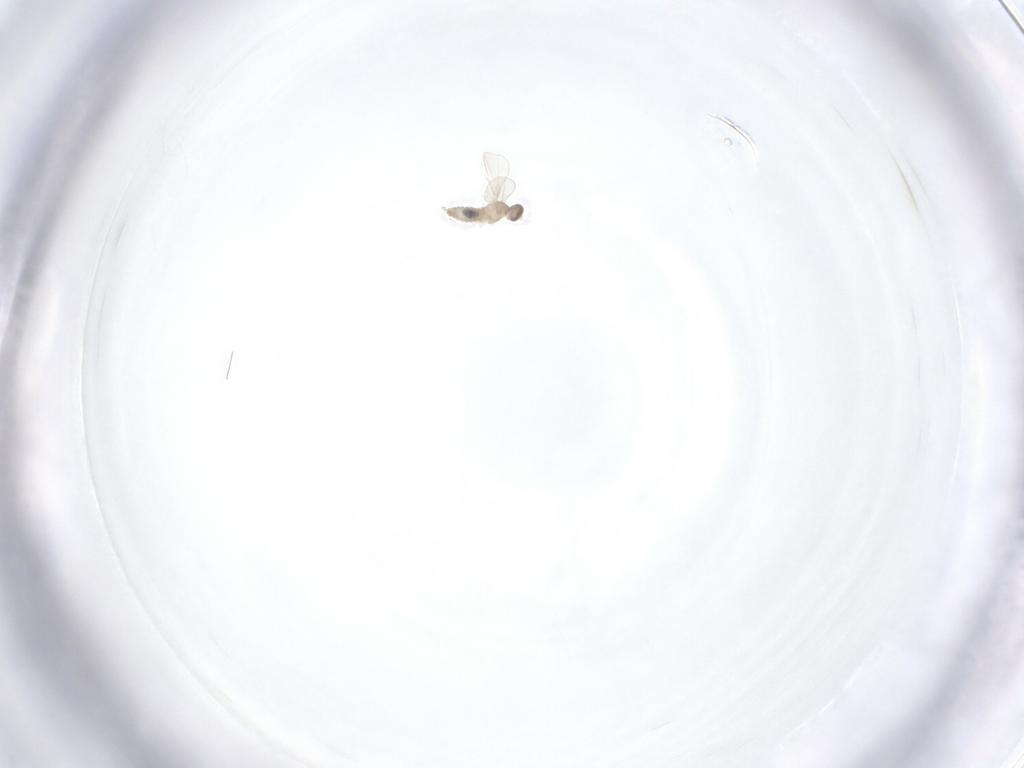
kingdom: Animalia
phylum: Arthropoda
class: Insecta
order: Diptera
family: Cecidomyiidae
